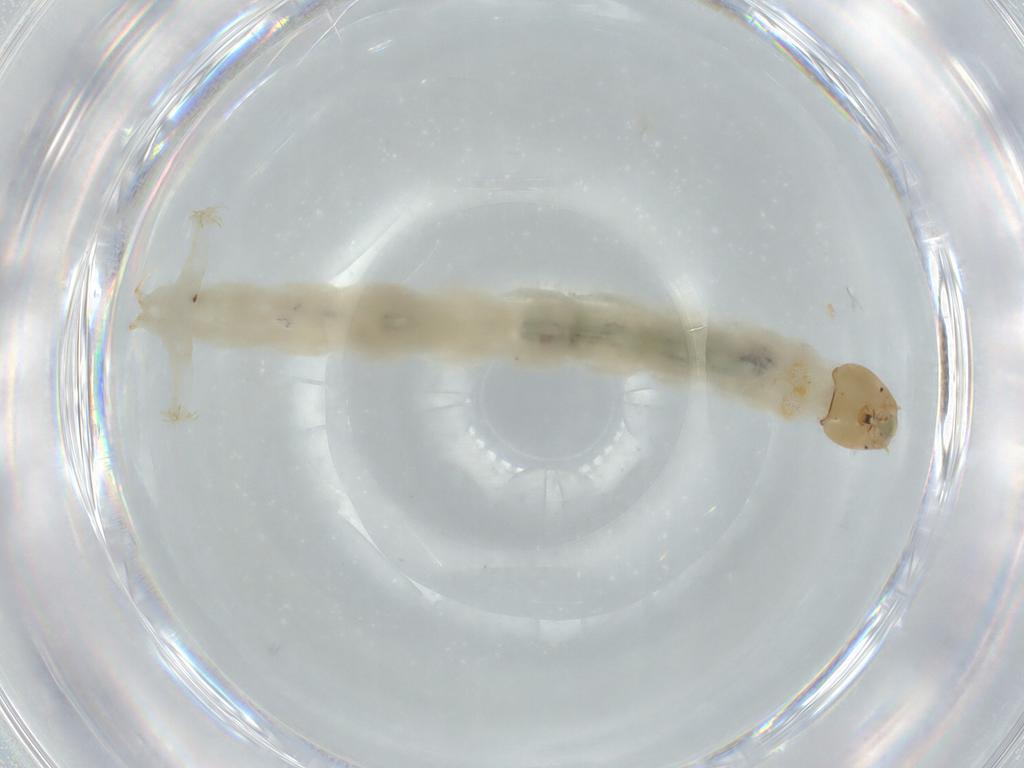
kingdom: Animalia
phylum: Arthropoda
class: Insecta
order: Diptera
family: Chironomidae
